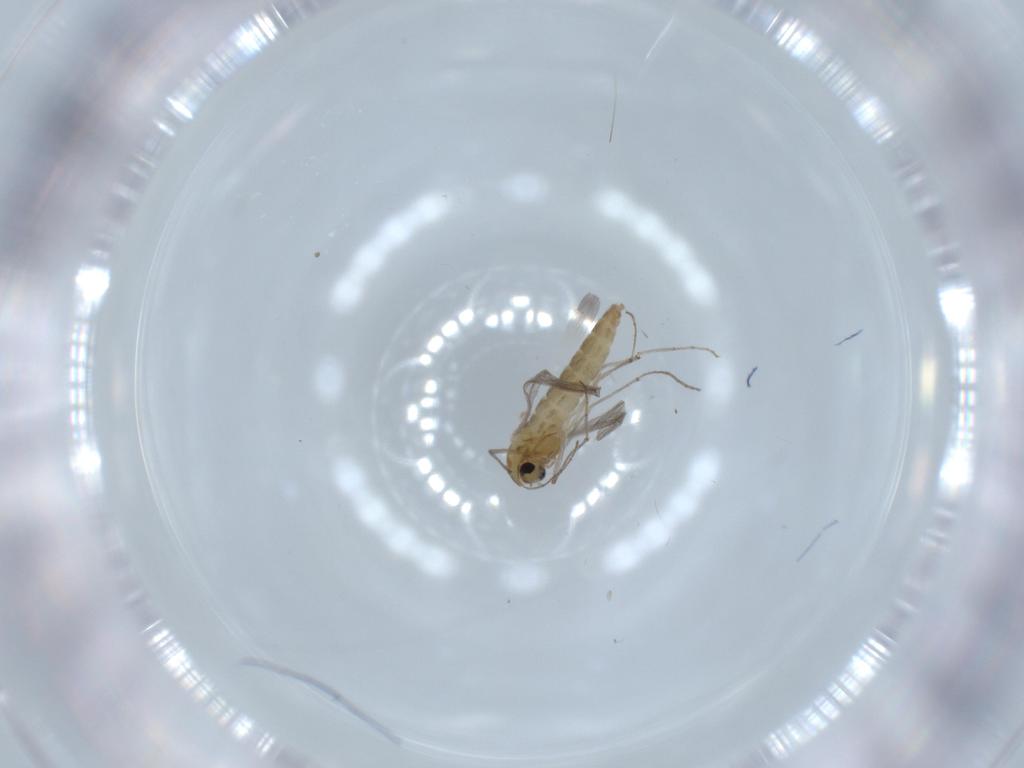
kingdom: Animalia
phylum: Arthropoda
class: Insecta
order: Diptera
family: Chironomidae
